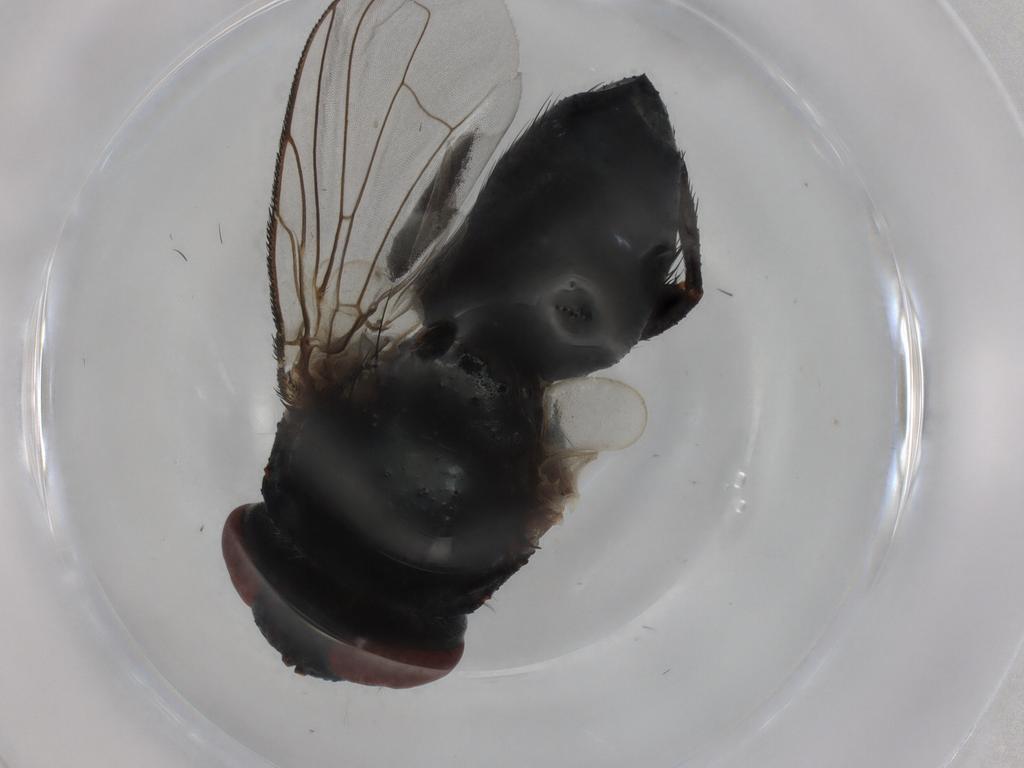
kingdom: Animalia
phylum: Arthropoda
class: Insecta
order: Diptera
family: Tachinidae
